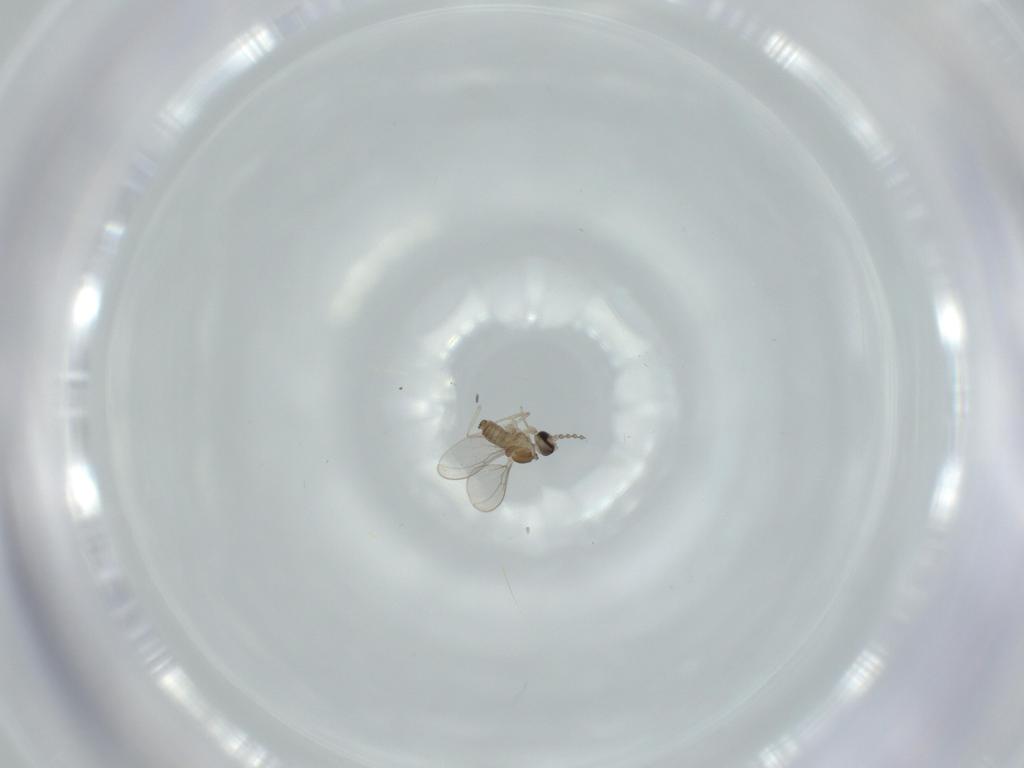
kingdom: Animalia
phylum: Arthropoda
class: Insecta
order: Diptera
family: Cecidomyiidae
